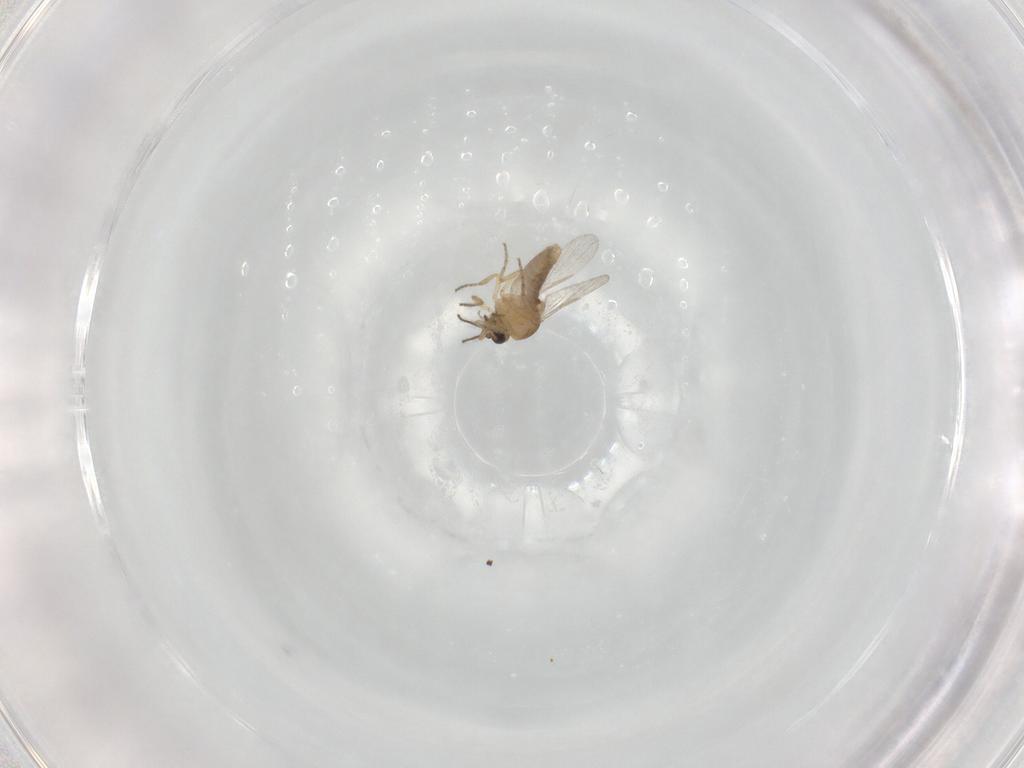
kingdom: Animalia
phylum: Arthropoda
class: Insecta
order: Diptera
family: Ceratopogonidae
